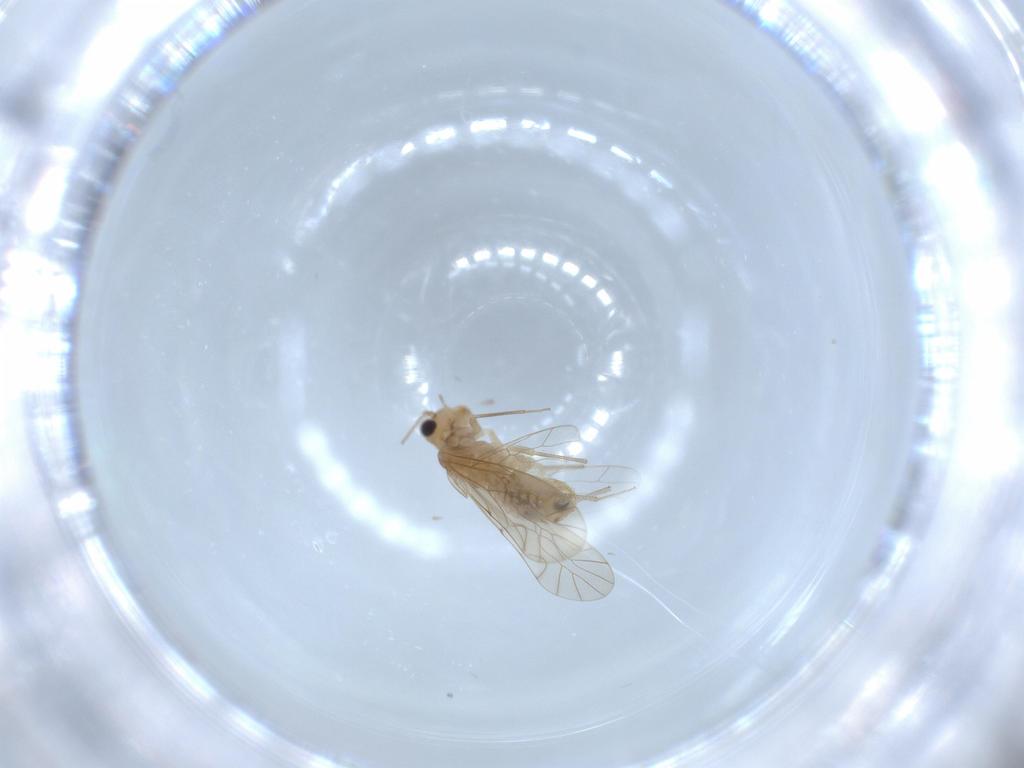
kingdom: Animalia
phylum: Arthropoda
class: Insecta
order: Psocodea
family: Lachesillidae
